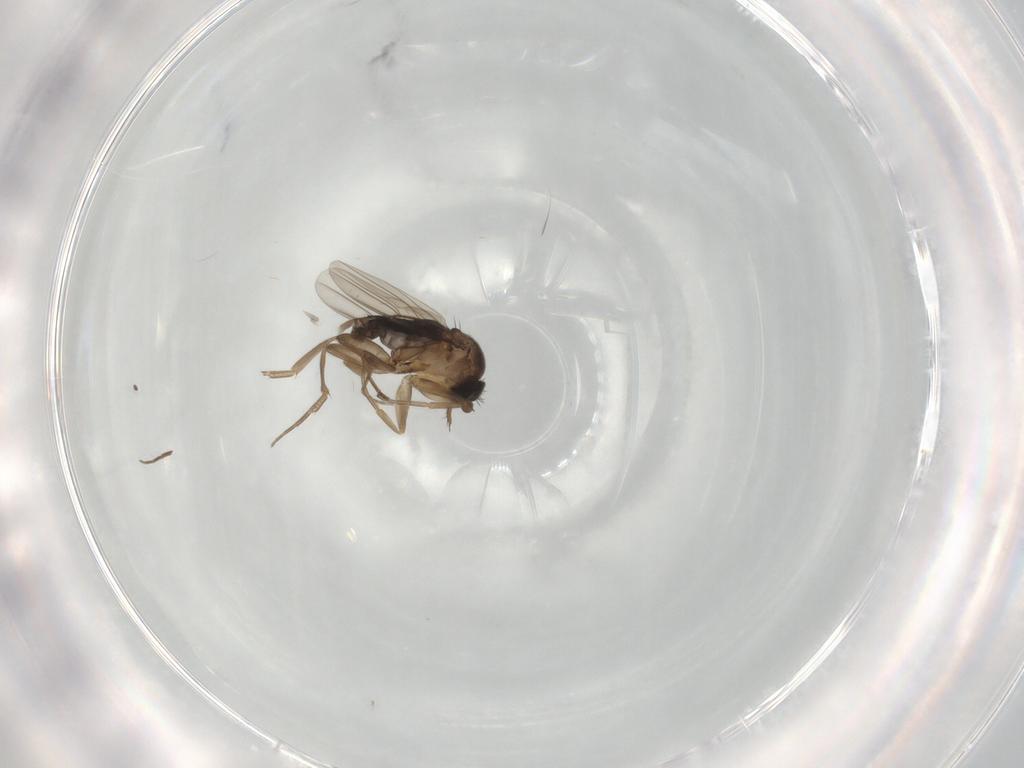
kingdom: Animalia
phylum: Arthropoda
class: Insecta
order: Diptera
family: Phoridae
